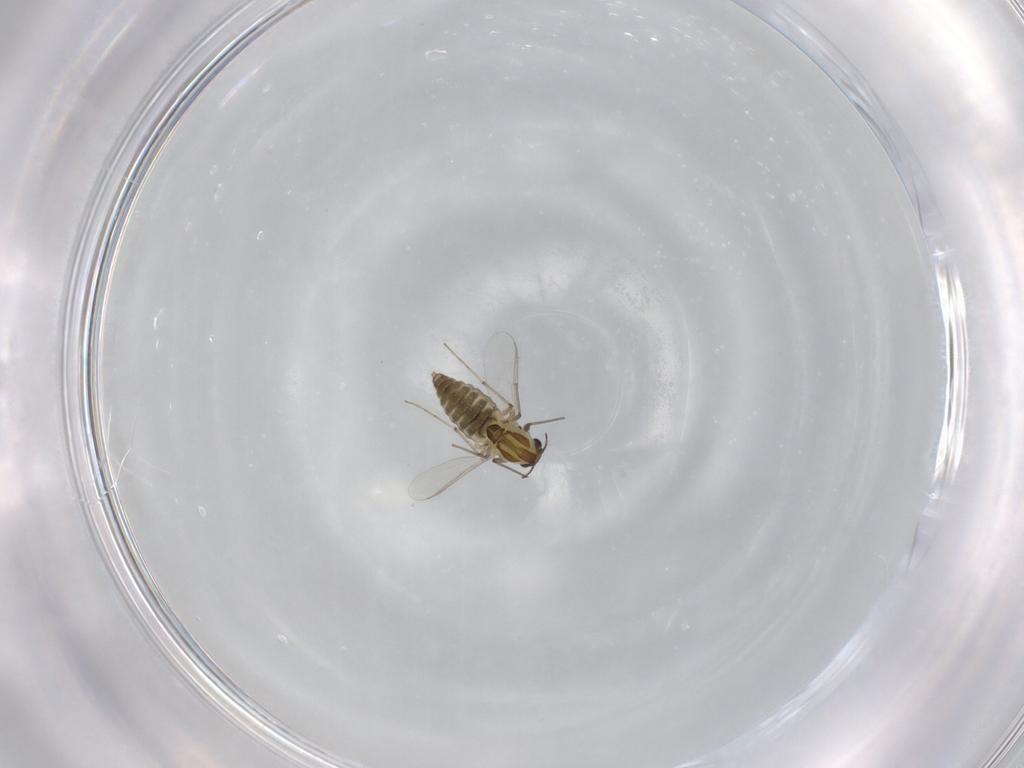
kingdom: Animalia
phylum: Arthropoda
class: Insecta
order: Diptera
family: Chironomidae
